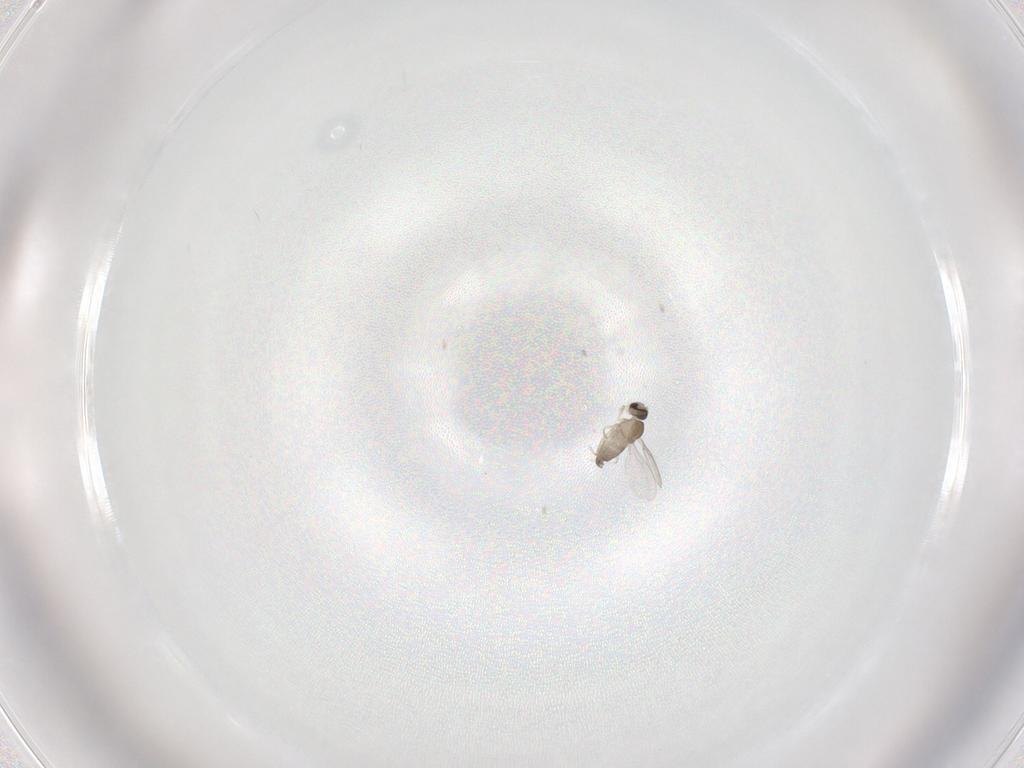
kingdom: Animalia
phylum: Arthropoda
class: Insecta
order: Diptera
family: Cecidomyiidae
